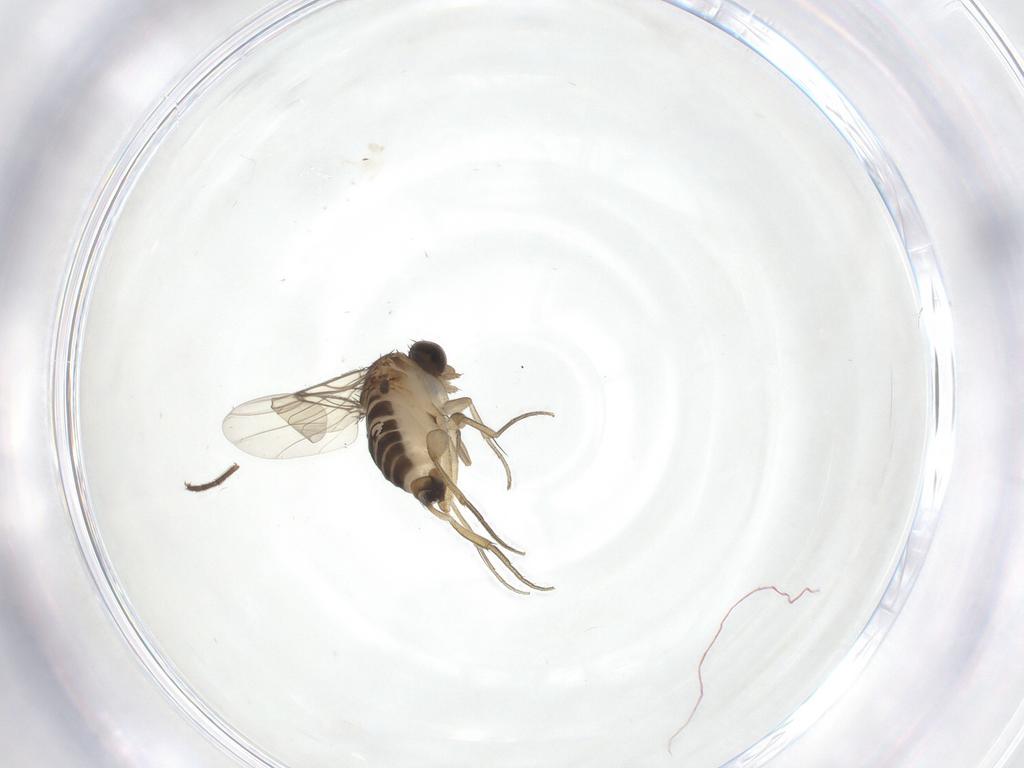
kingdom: Animalia
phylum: Arthropoda
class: Insecta
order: Diptera
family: Phoridae
